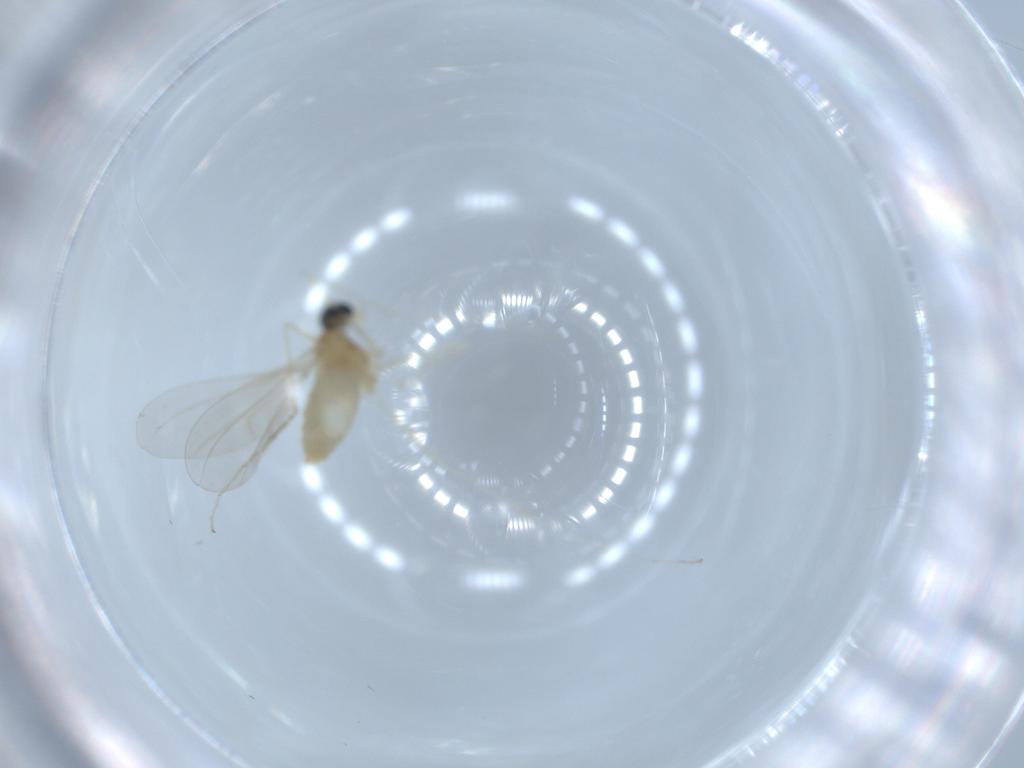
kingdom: Animalia
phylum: Arthropoda
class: Insecta
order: Diptera
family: Cecidomyiidae
